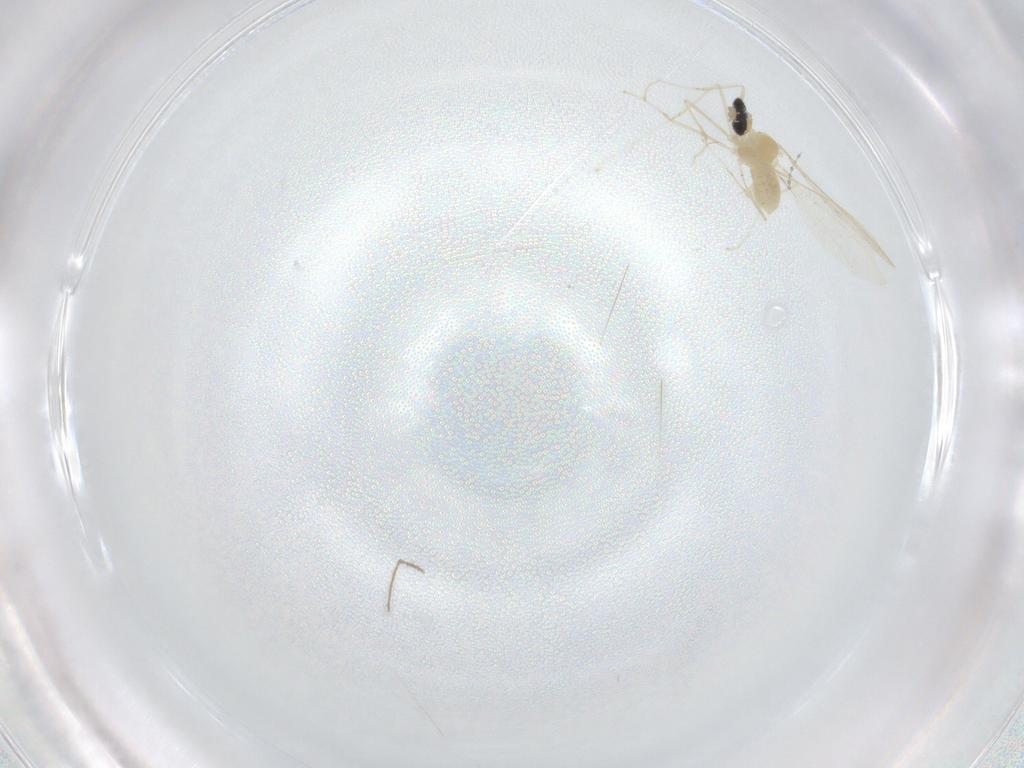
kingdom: Animalia
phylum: Arthropoda
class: Insecta
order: Diptera
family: Cecidomyiidae
